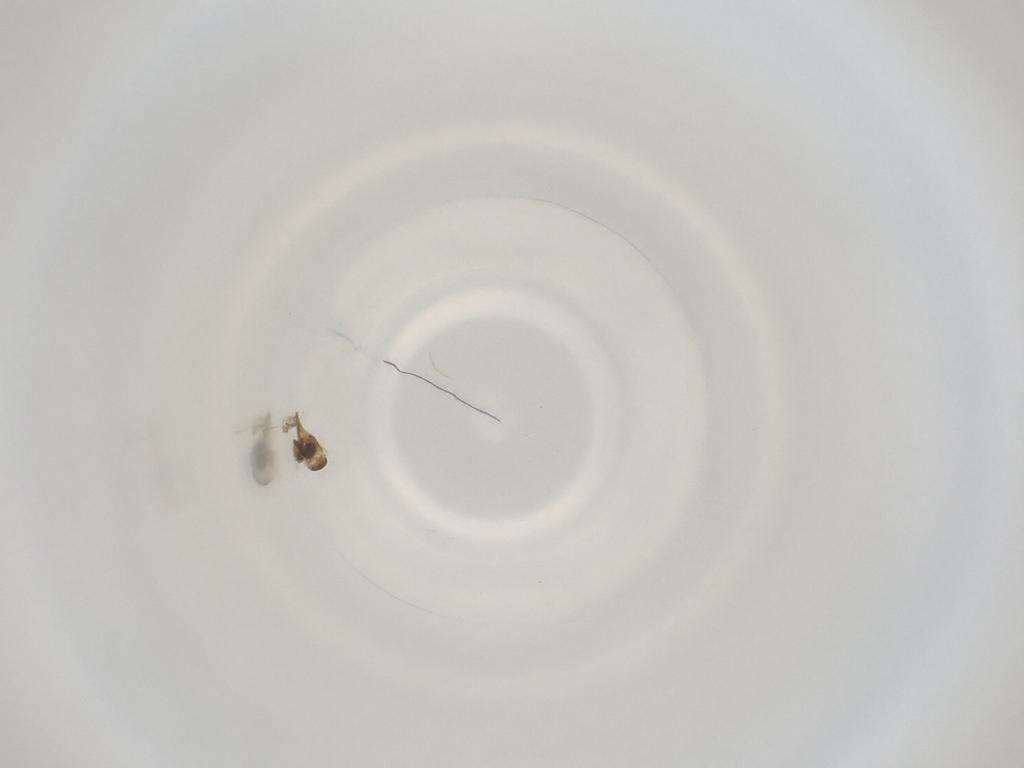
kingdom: Animalia
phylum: Arthropoda
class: Insecta
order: Diptera
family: Cecidomyiidae
